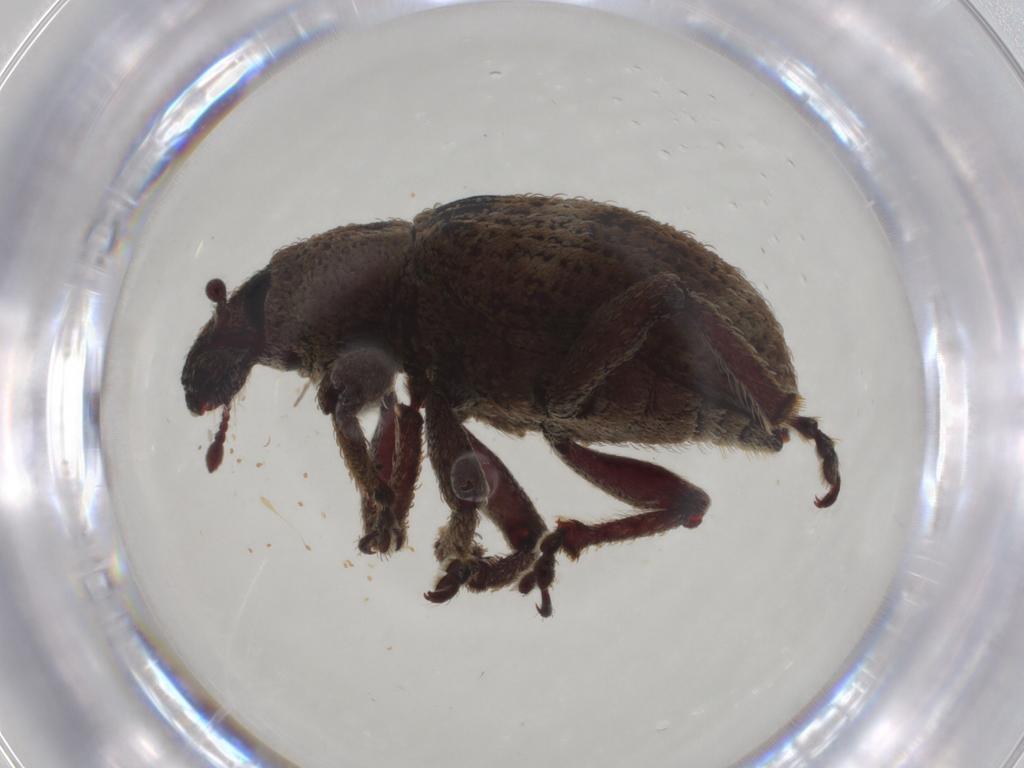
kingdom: Animalia
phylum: Arthropoda
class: Insecta
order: Coleoptera
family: Curculionidae
